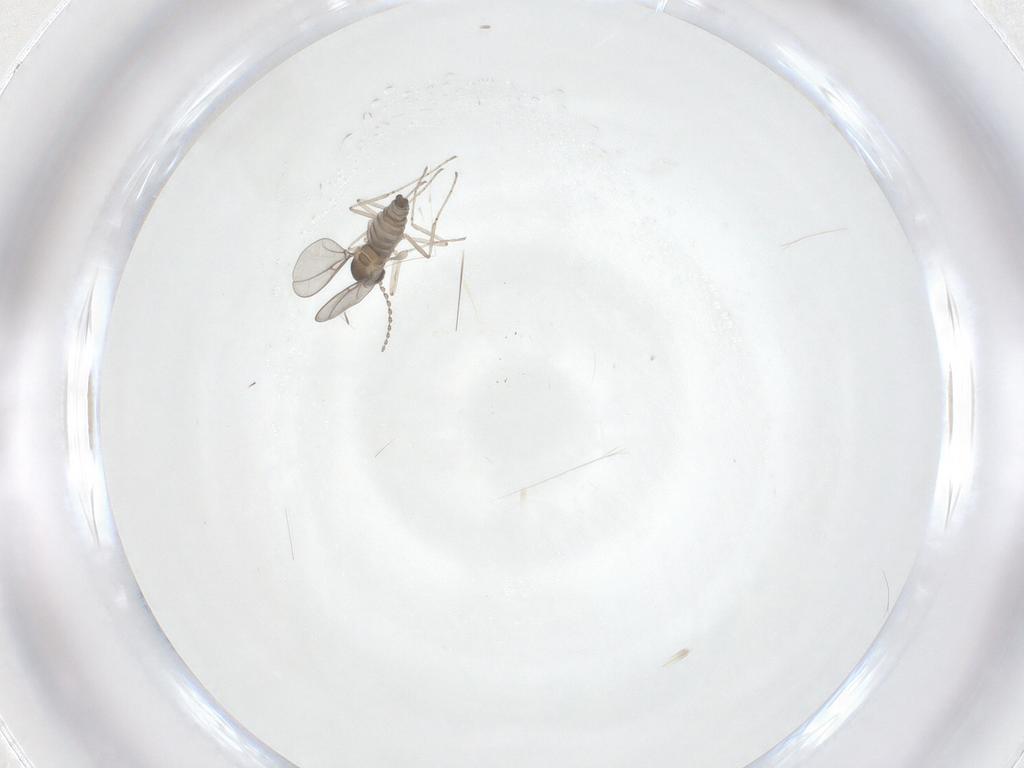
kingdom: Animalia
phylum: Arthropoda
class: Insecta
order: Diptera
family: Cecidomyiidae
